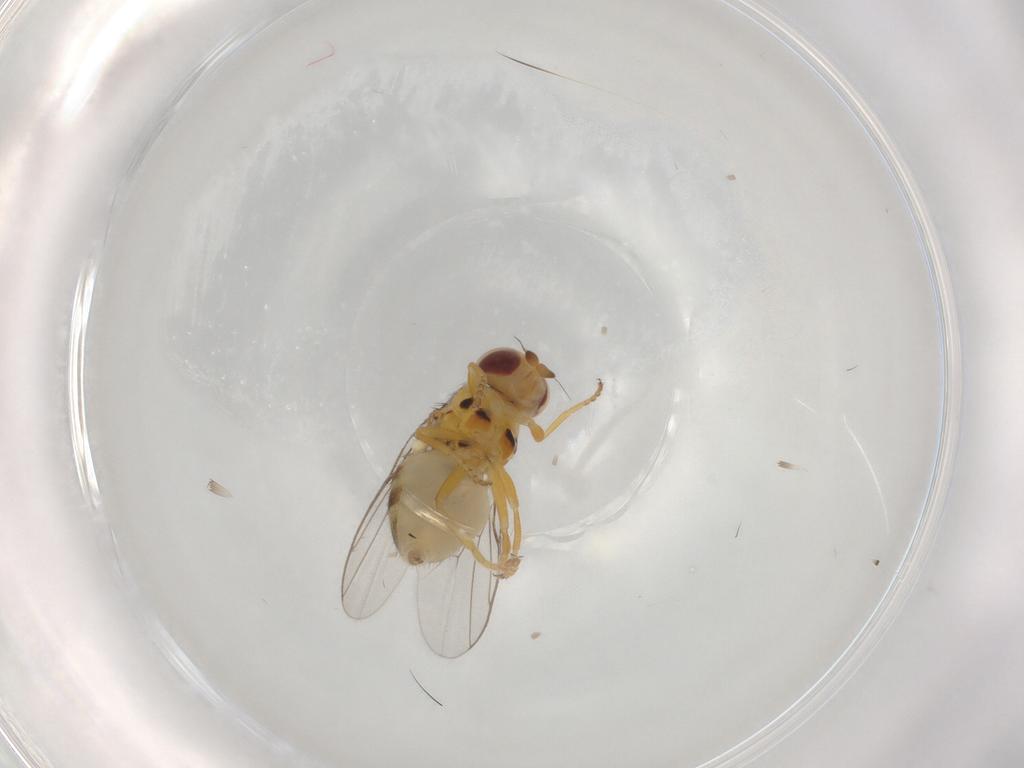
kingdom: Animalia
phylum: Arthropoda
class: Insecta
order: Diptera
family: Chloropidae
